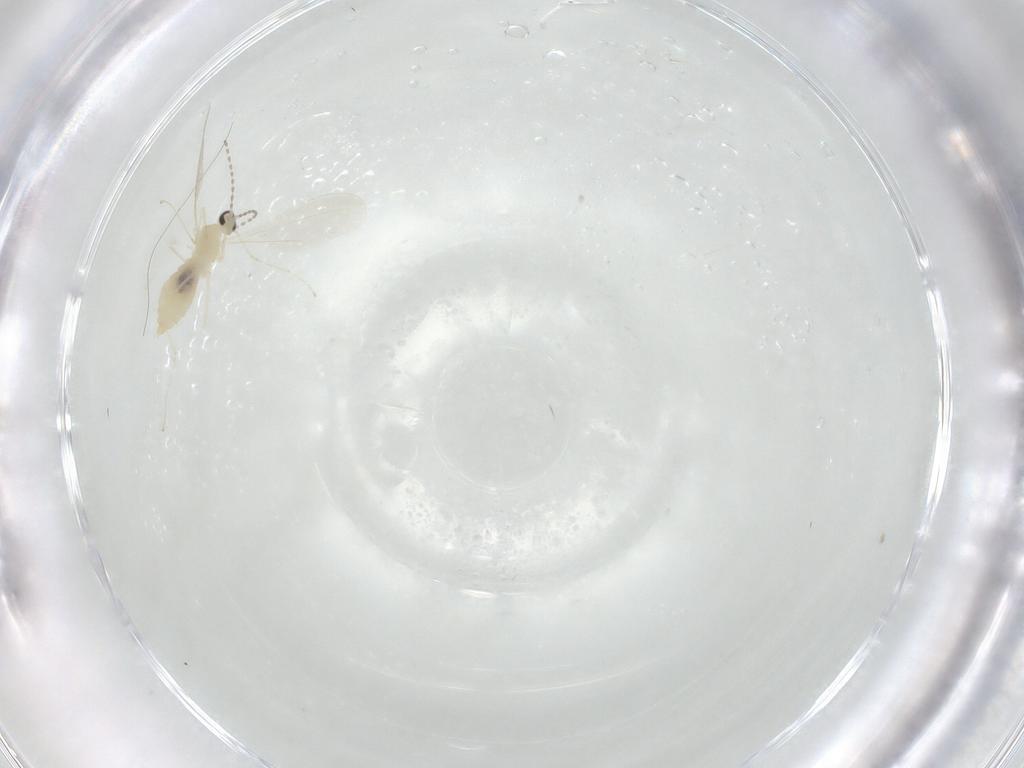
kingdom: Animalia
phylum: Arthropoda
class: Insecta
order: Diptera
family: Cecidomyiidae
